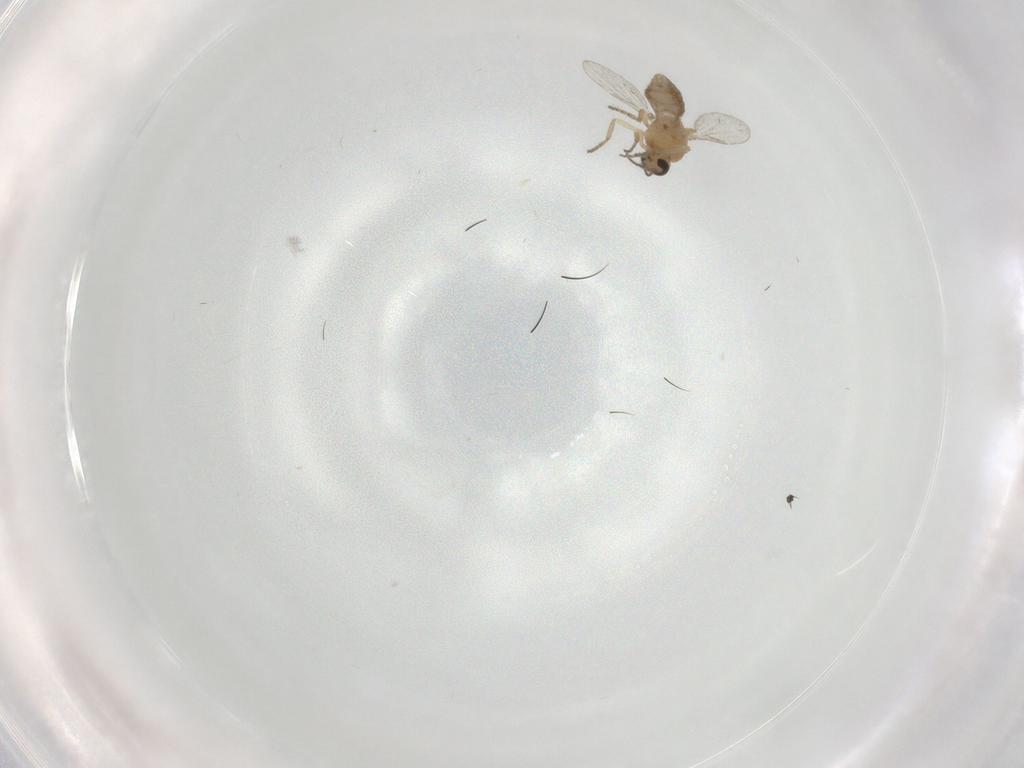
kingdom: Animalia
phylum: Arthropoda
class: Insecta
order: Diptera
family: Ceratopogonidae
